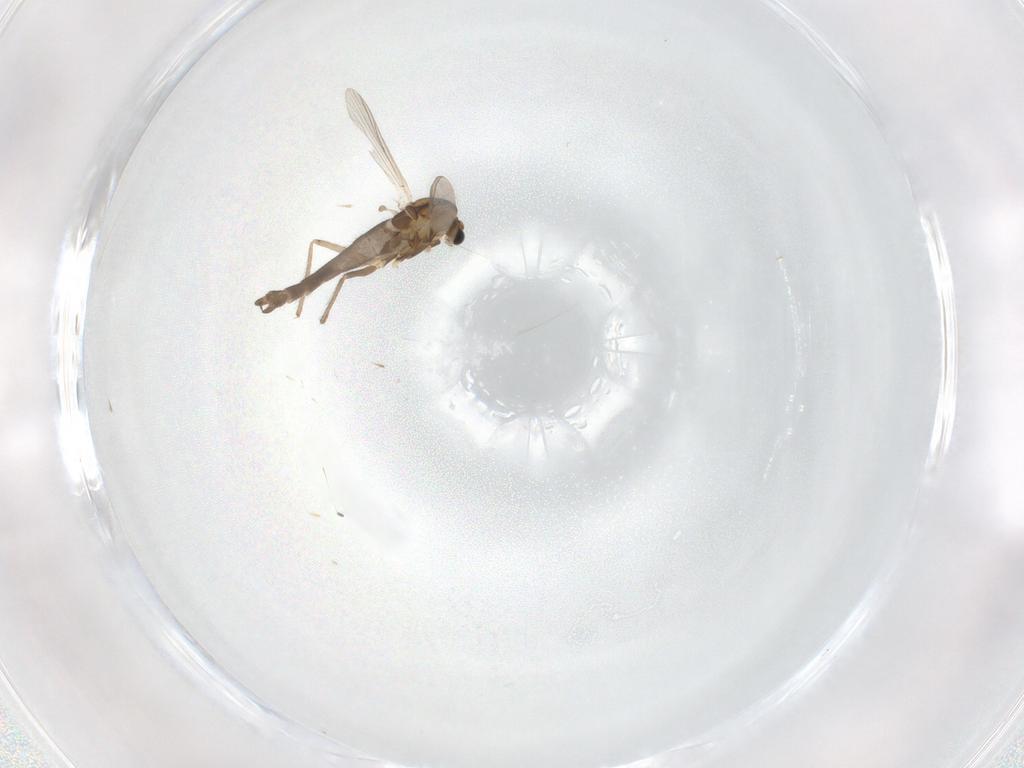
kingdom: Animalia
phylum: Arthropoda
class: Insecta
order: Diptera
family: Chironomidae
